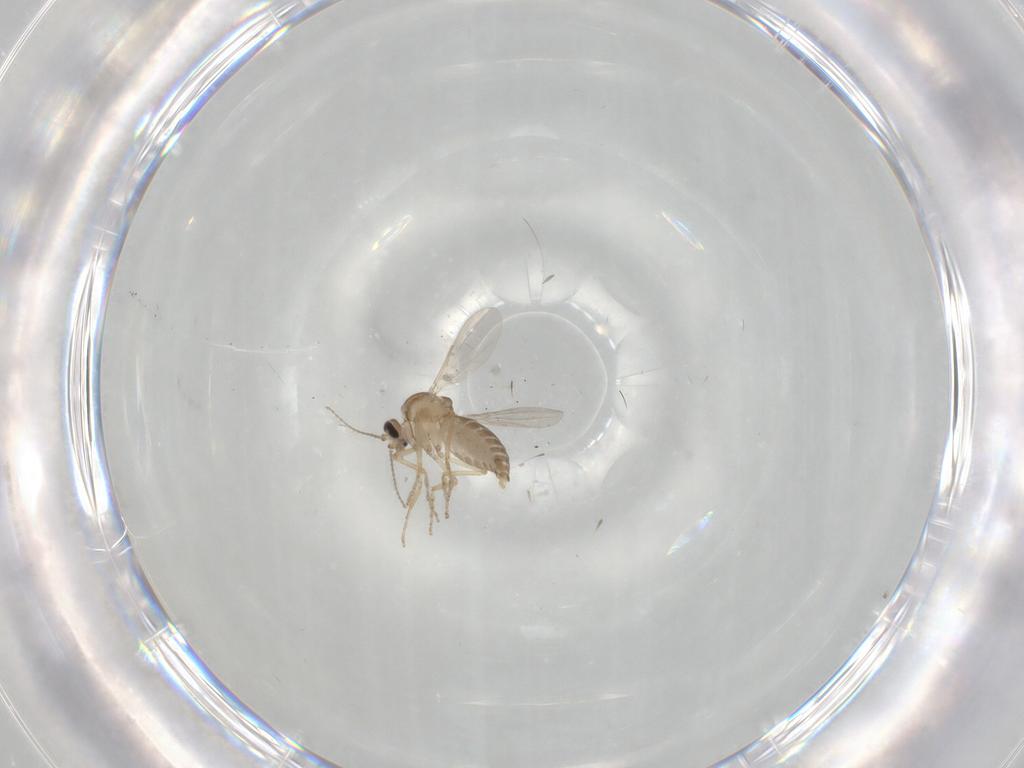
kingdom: Animalia
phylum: Arthropoda
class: Insecta
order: Diptera
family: Ceratopogonidae
